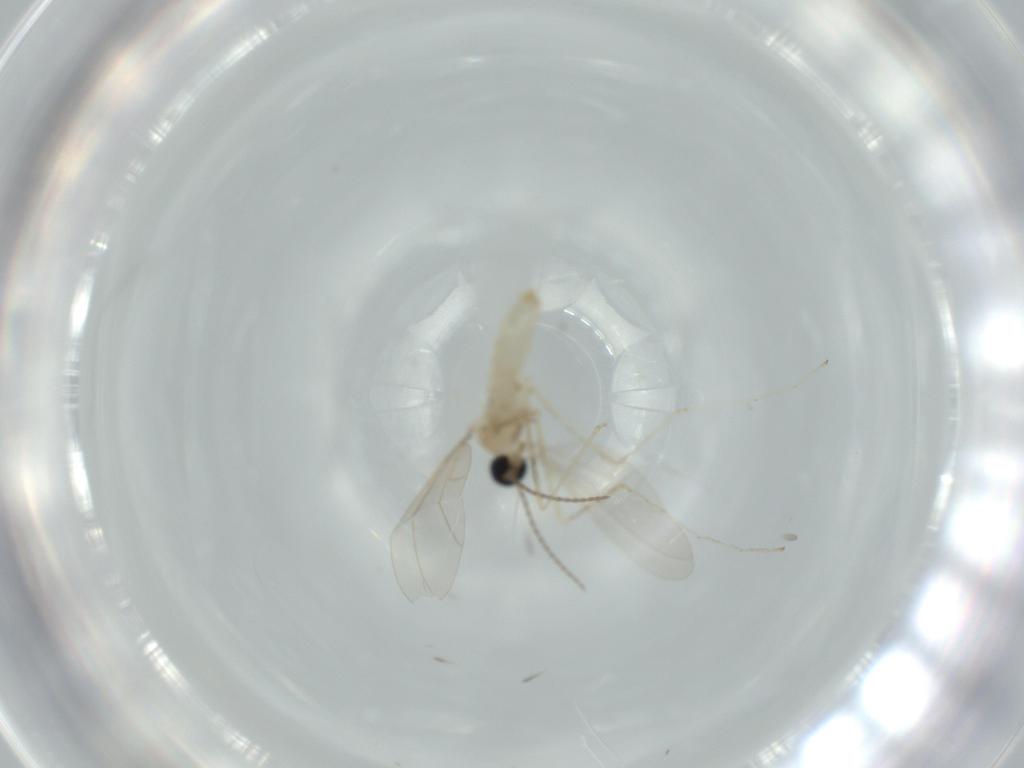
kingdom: Animalia
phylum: Arthropoda
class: Insecta
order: Diptera
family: Cecidomyiidae
